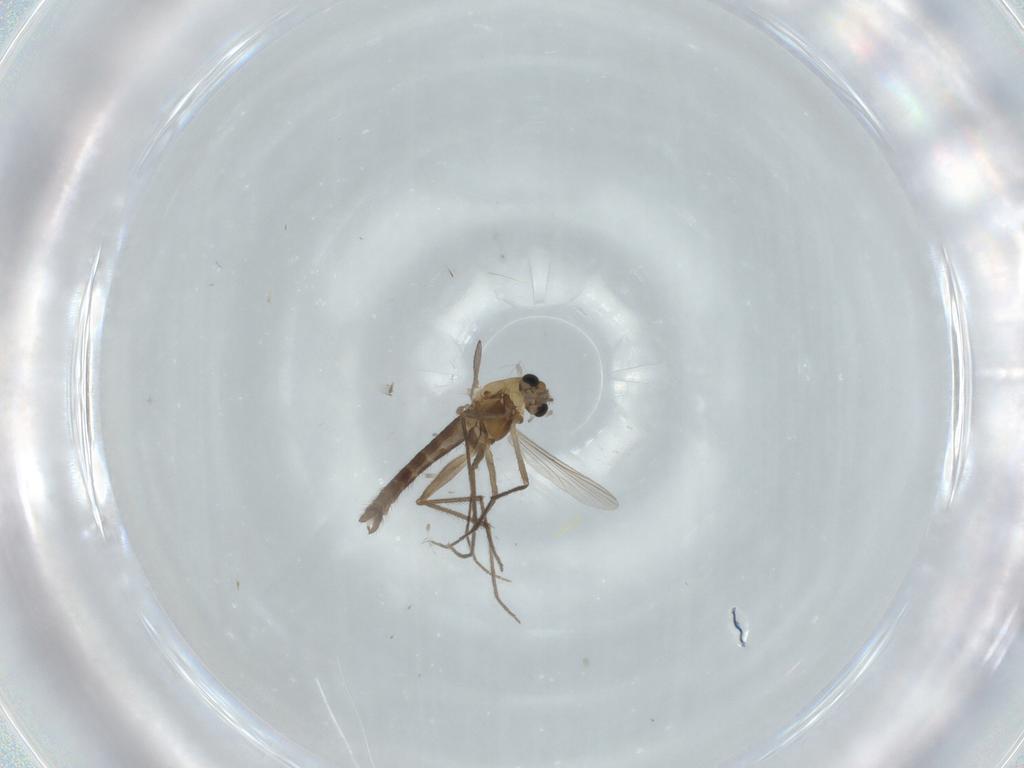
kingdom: Animalia
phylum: Arthropoda
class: Insecta
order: Diptera
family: Chironomidae
